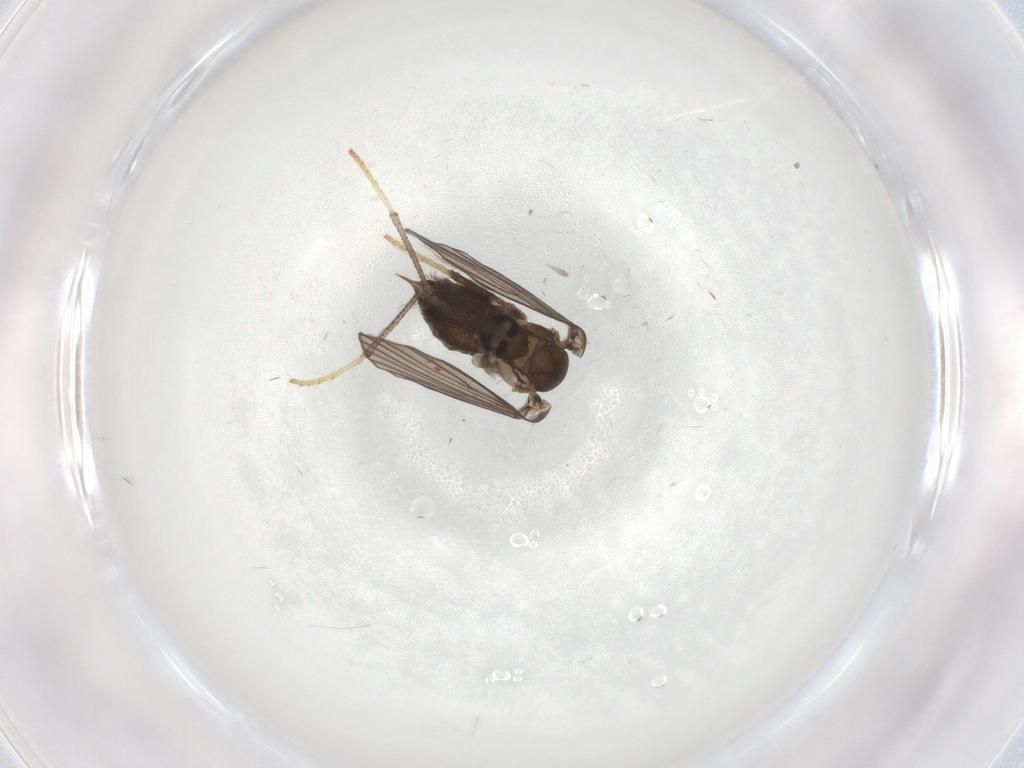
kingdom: Animalia
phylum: Arthropoda
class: Insecta
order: Diptera
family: Psychodidae
